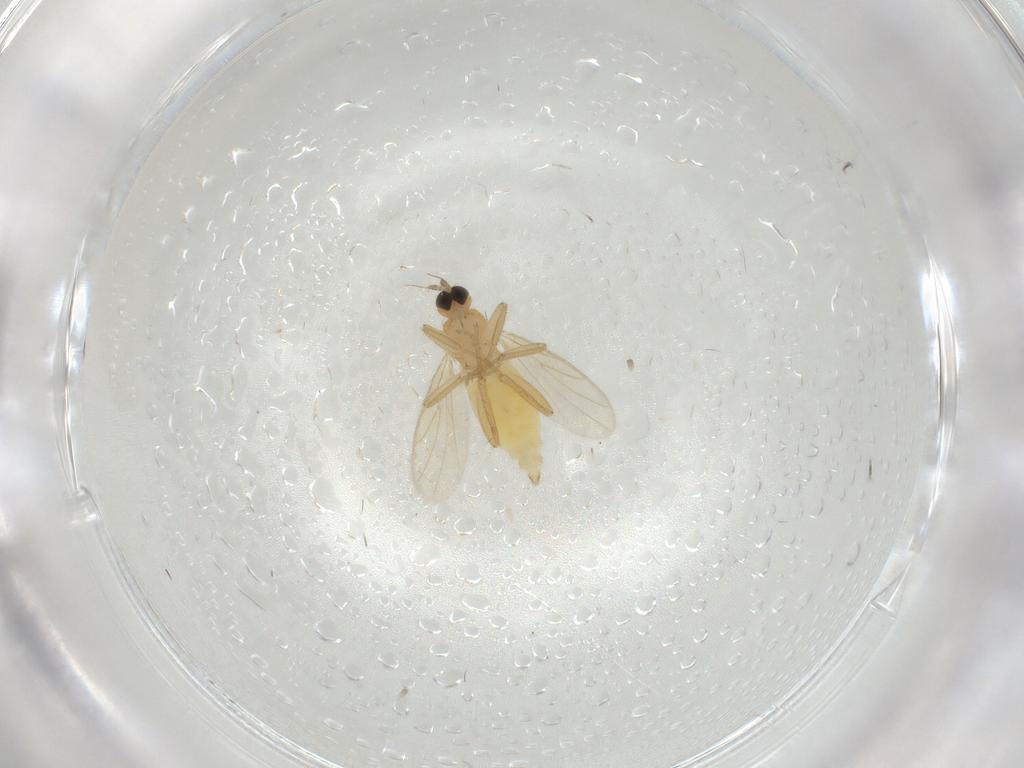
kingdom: Animalia
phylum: Arthropoda
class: Insecta
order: Diptera
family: Hybotidae
